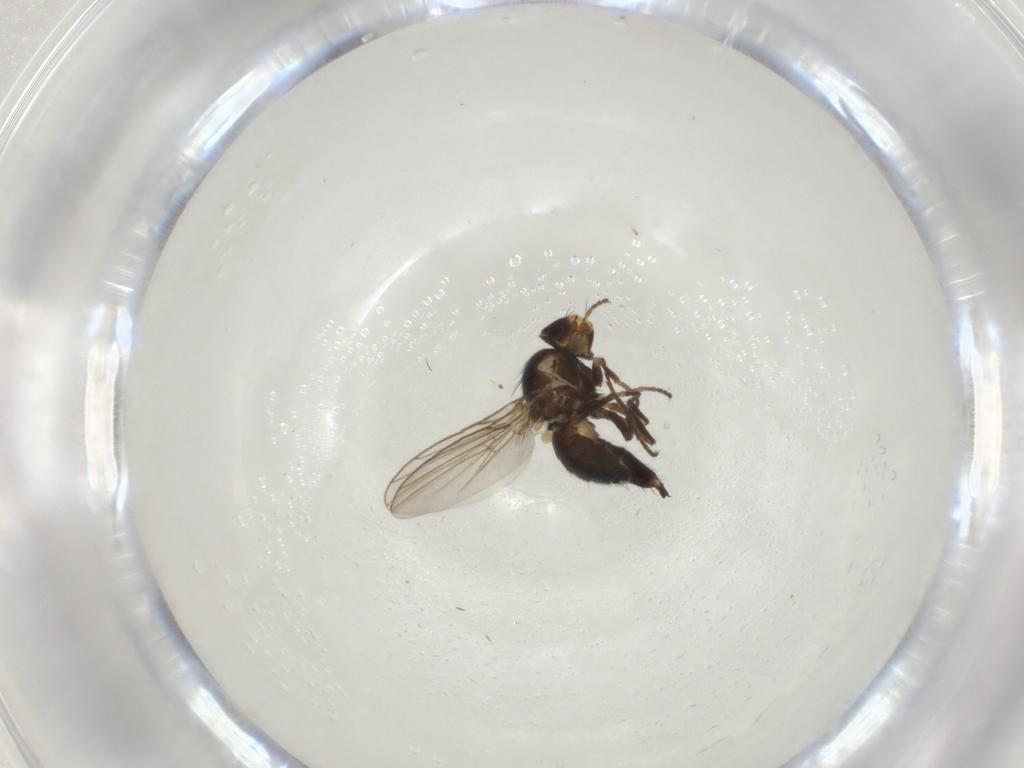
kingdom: Animalia
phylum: Arthropoda
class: Insecta
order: Diptera
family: Agromyzidae
